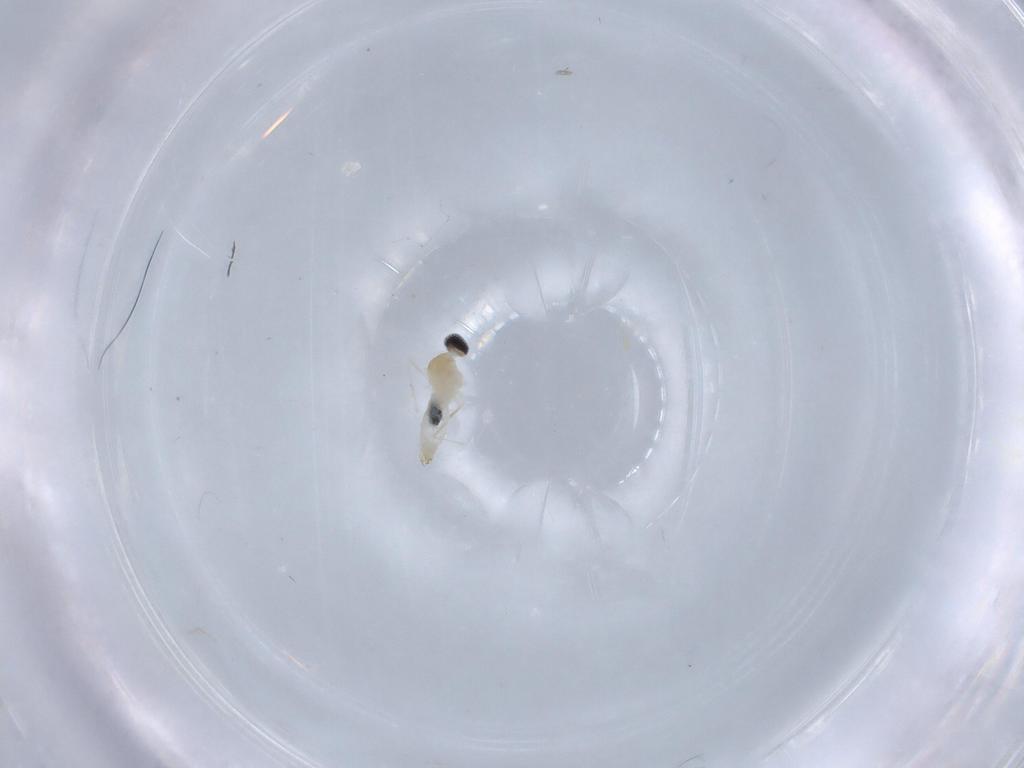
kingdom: Animalia
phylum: Arthropoda
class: Insecta
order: Diptera
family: Cecidomyiidae
